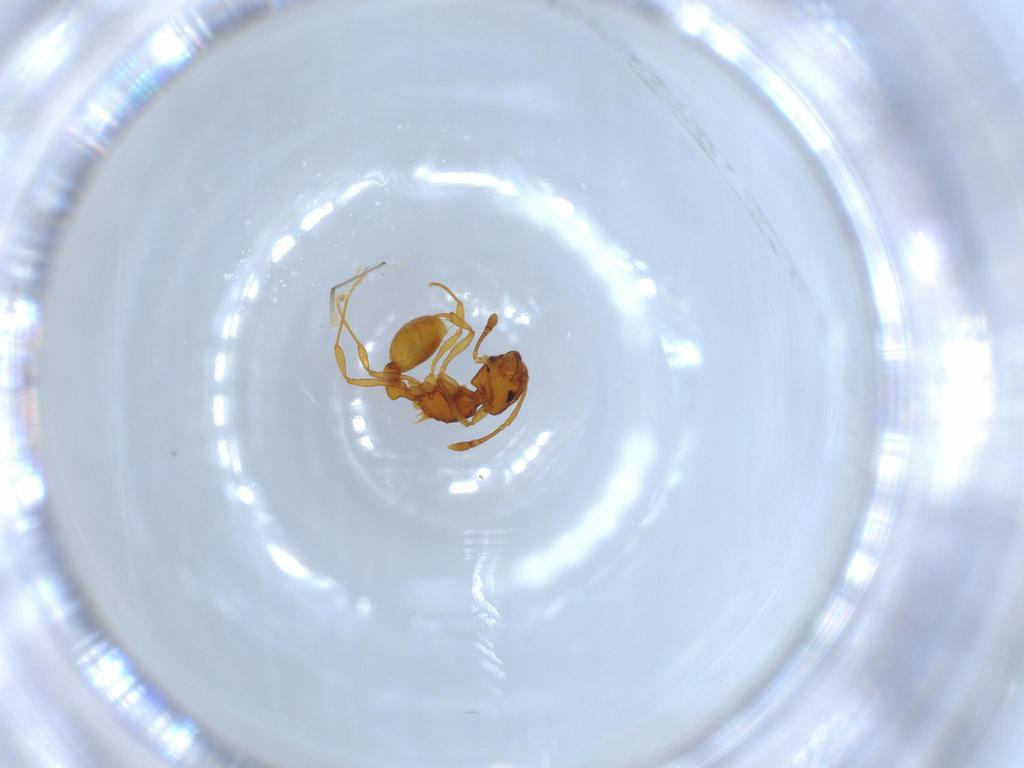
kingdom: Animalia
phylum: Arthropoda
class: Insecta
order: Hymenoptera
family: Formicidae
